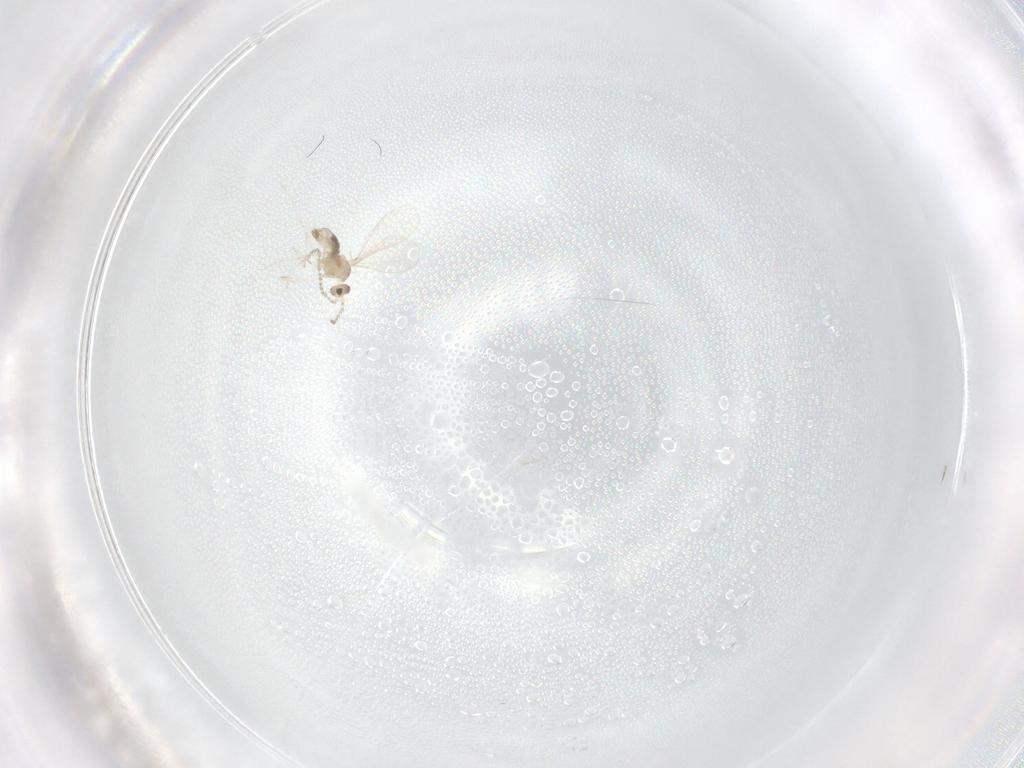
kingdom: Animalia
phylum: Arthropoda
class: Insecta
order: Diptera
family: Cecidomyiidae
